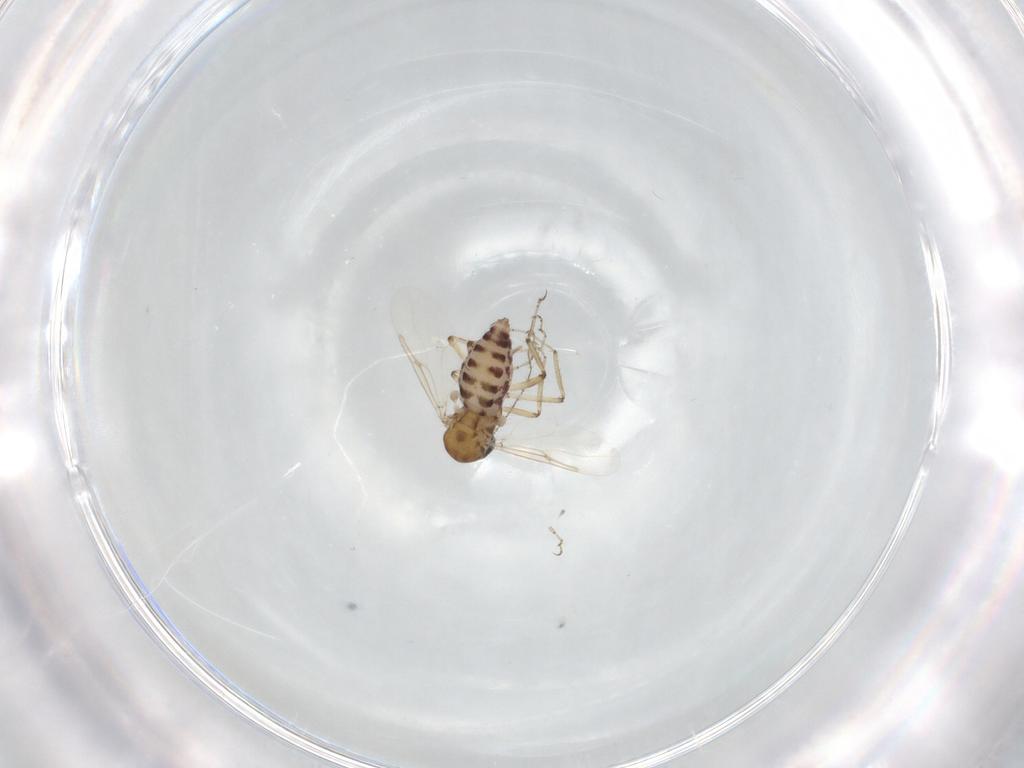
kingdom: Animalia
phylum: Arthropoda
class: Insecta
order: Diptera
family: Ceratopogonidae
